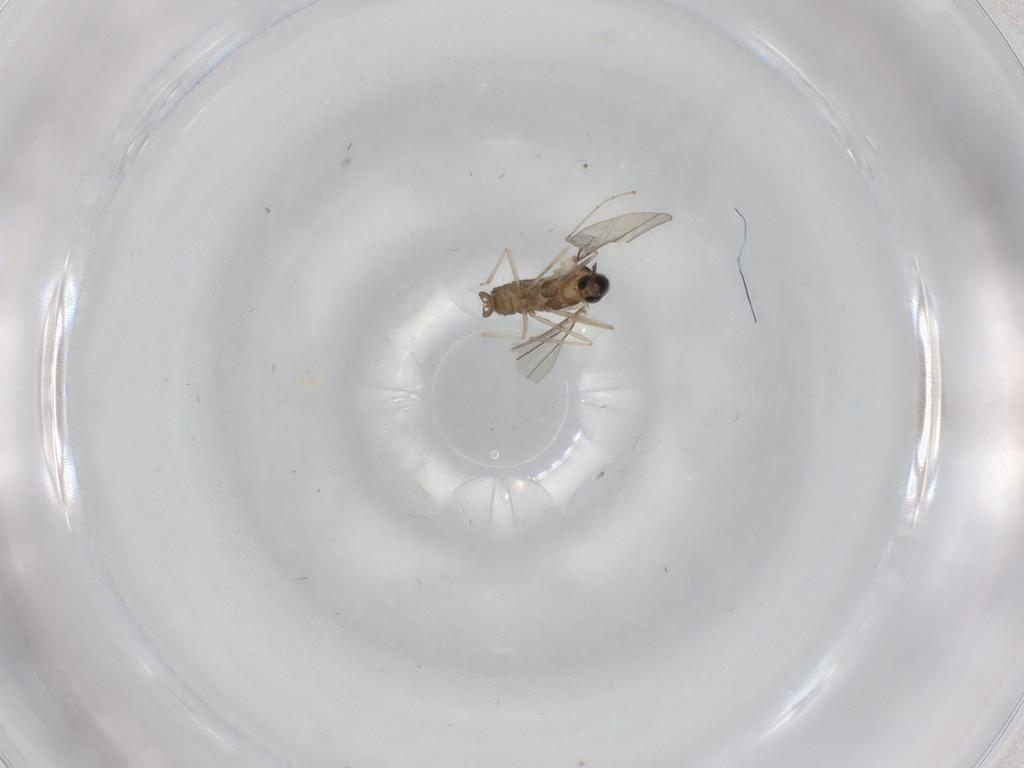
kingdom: Animalia
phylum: Arthropoda
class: Insecta
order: Diptera
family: Cecidomyiidae
